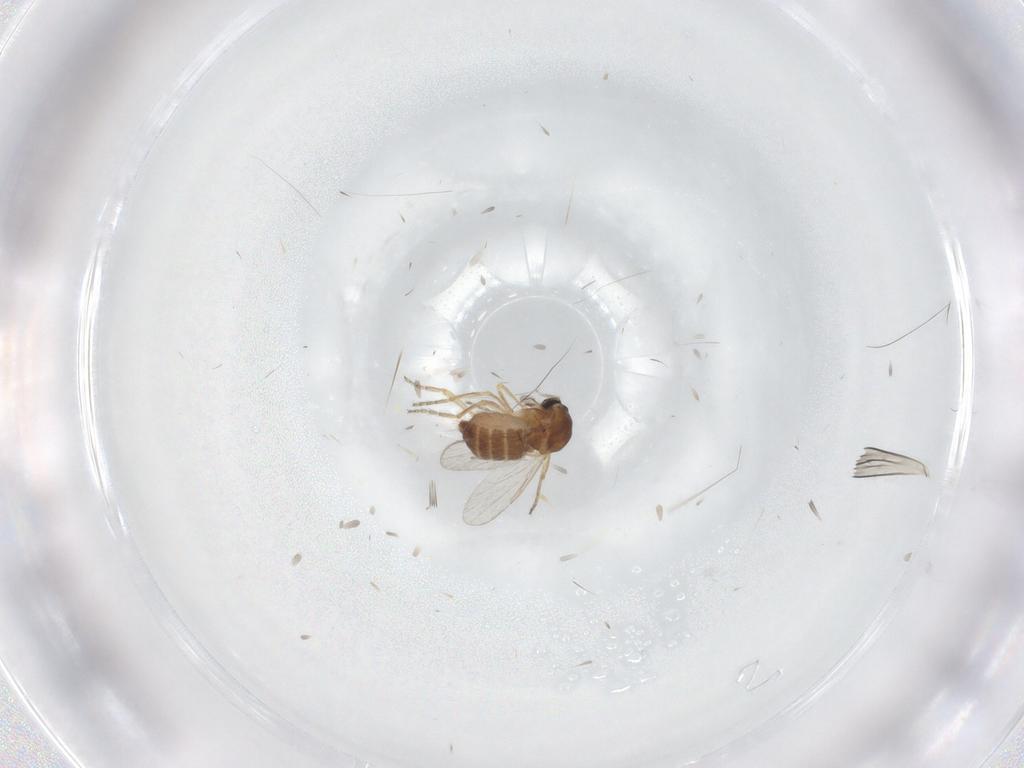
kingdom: Animalia
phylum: Arthropoda
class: Insecta
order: Diptera
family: Ceratopogonidae
